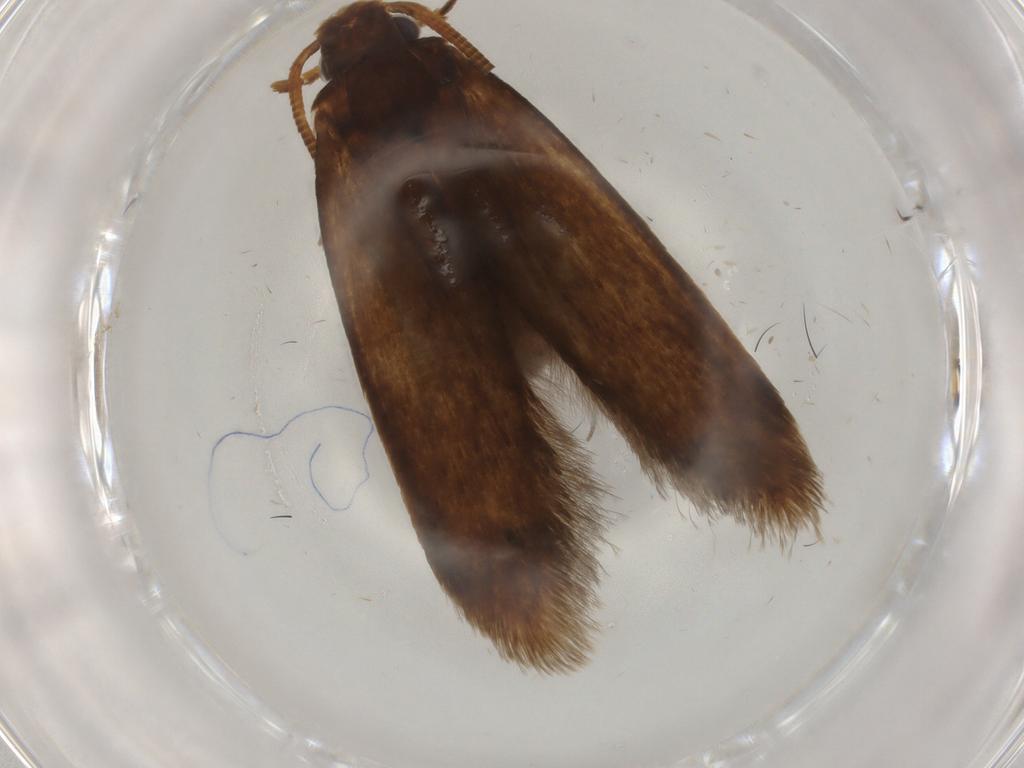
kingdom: Animalia
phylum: Arthropoda
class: Insecta
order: Lepidoptera
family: Tineidae
